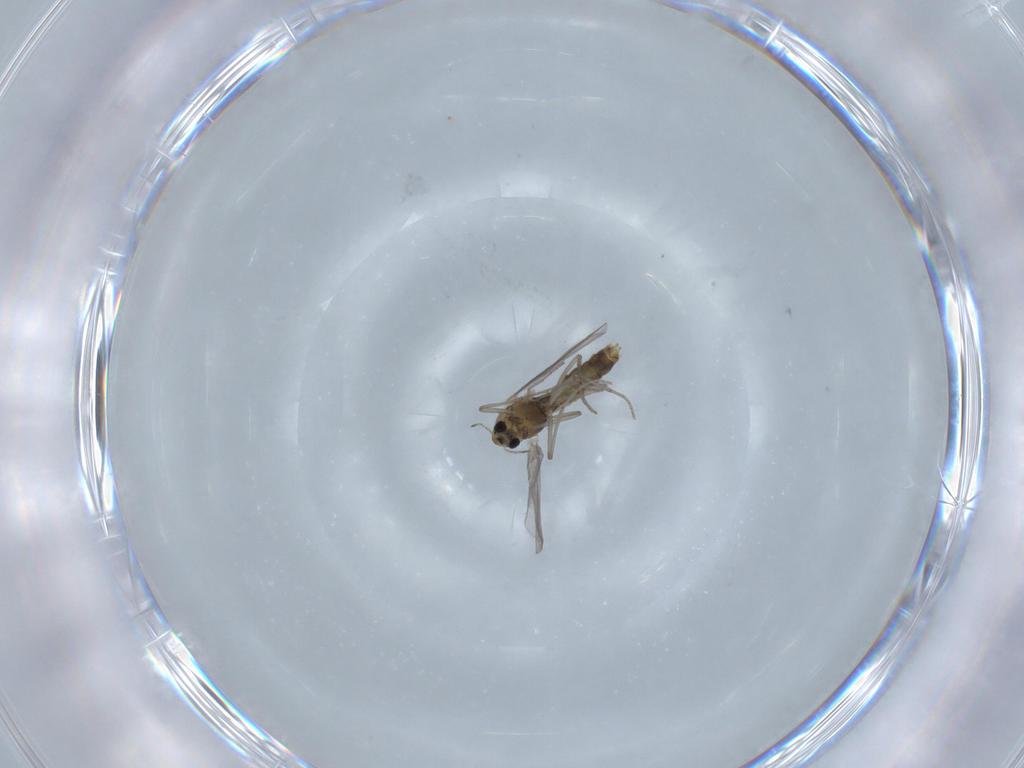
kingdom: Animalia
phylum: Arthropoda
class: Insecta
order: Diptera
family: Chironomidae
